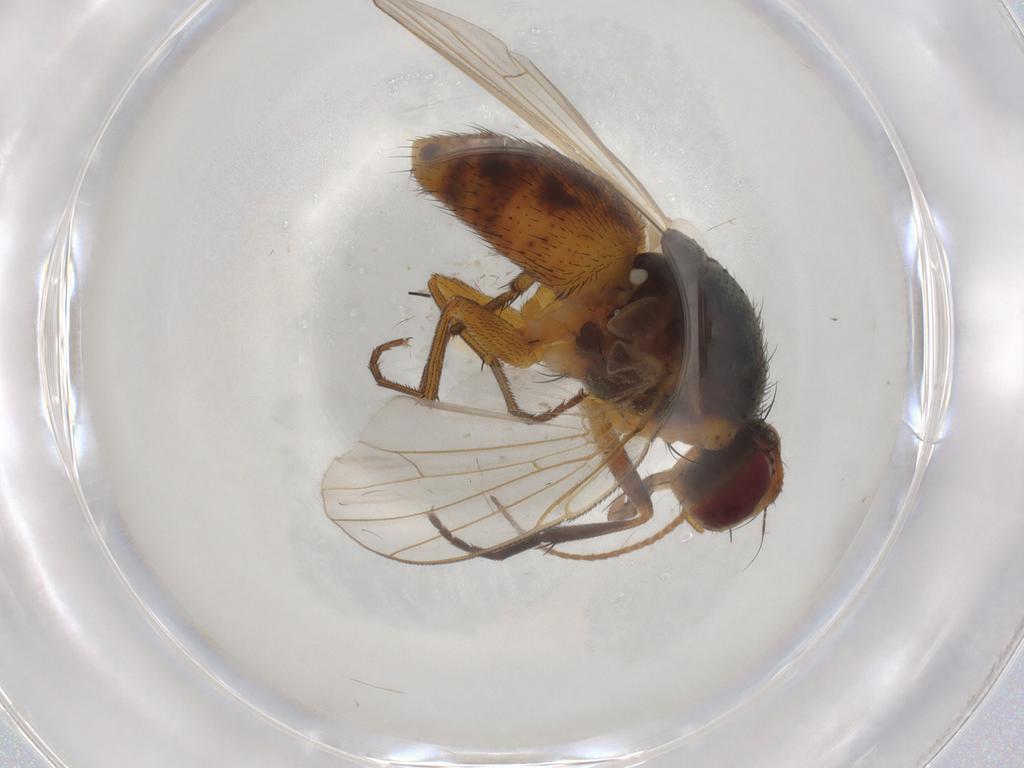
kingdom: Animalia
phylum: Arthropoda
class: Insecta
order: Diptera
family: Muscidae
